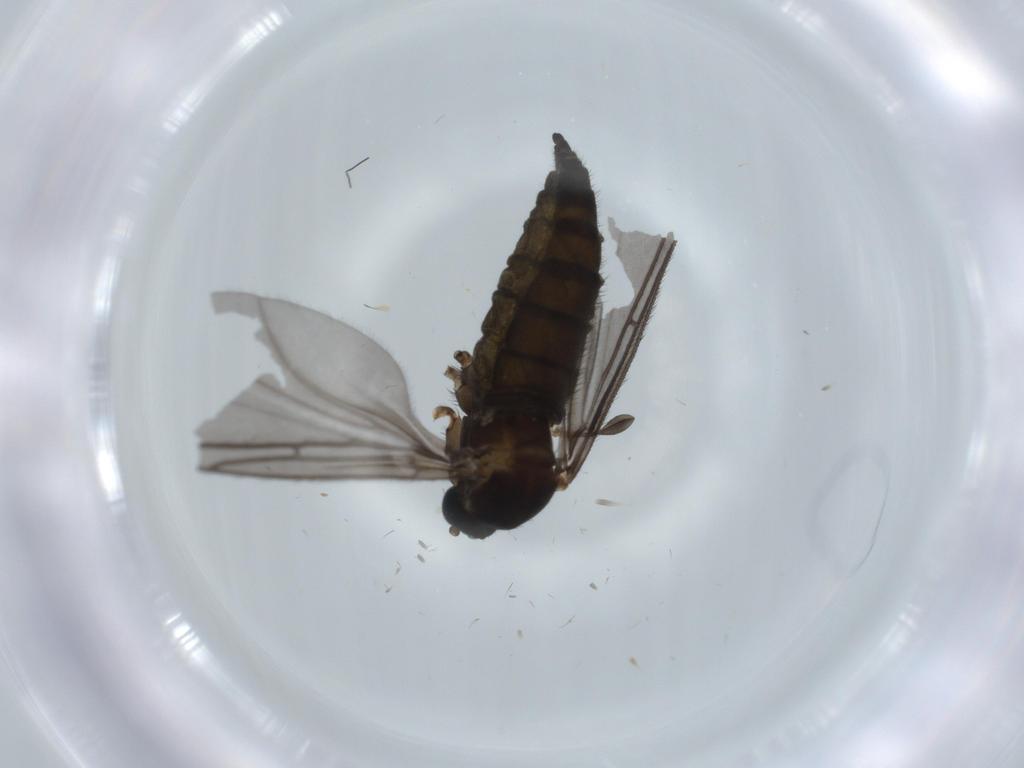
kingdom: Animalia
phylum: Arthropoda
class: Insecta
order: Diptera
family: Sciaridae
